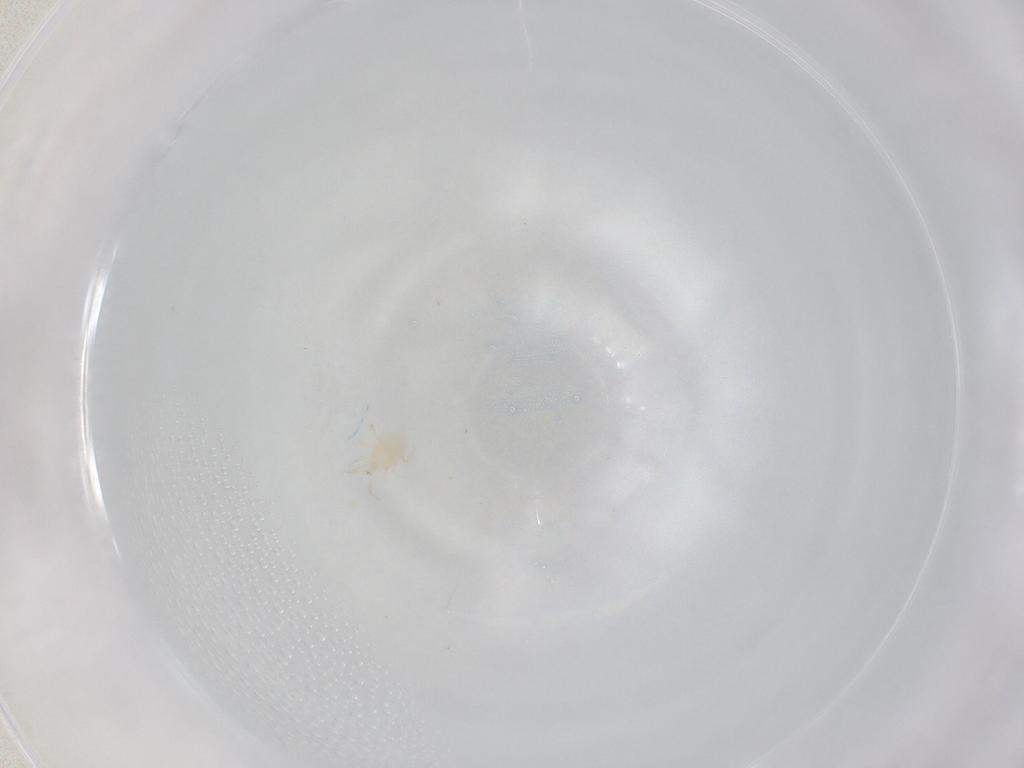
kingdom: Animalia
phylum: Arthropoda
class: Arachnida
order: Mesostigmata
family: Phytoseiidae
